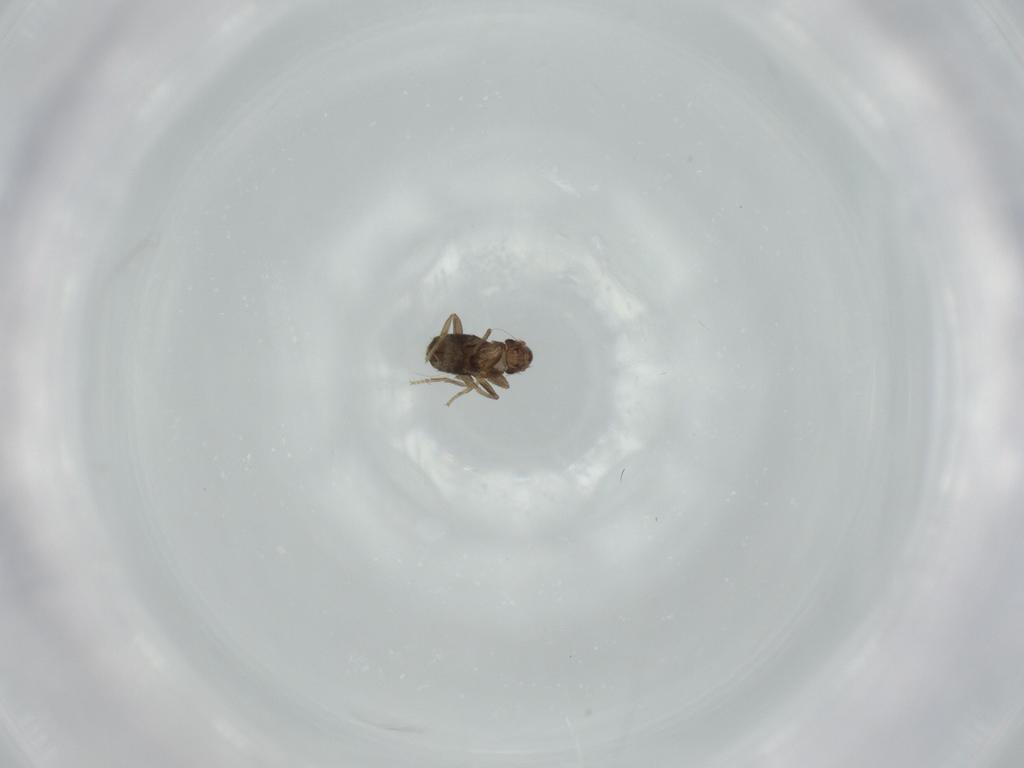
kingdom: Animalia
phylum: Arthropoda
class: Insecta
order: Diptera
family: Phoridae
